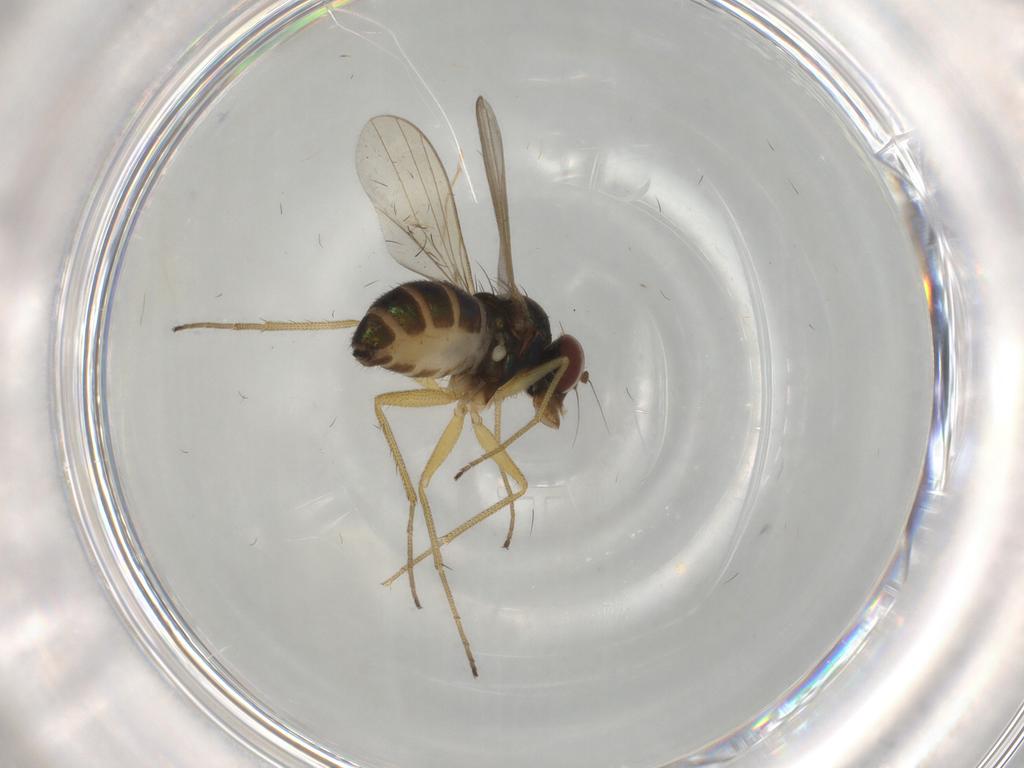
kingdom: Animalia
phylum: Arthropoda
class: Insecta
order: Diptera
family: Dolichopodidae
